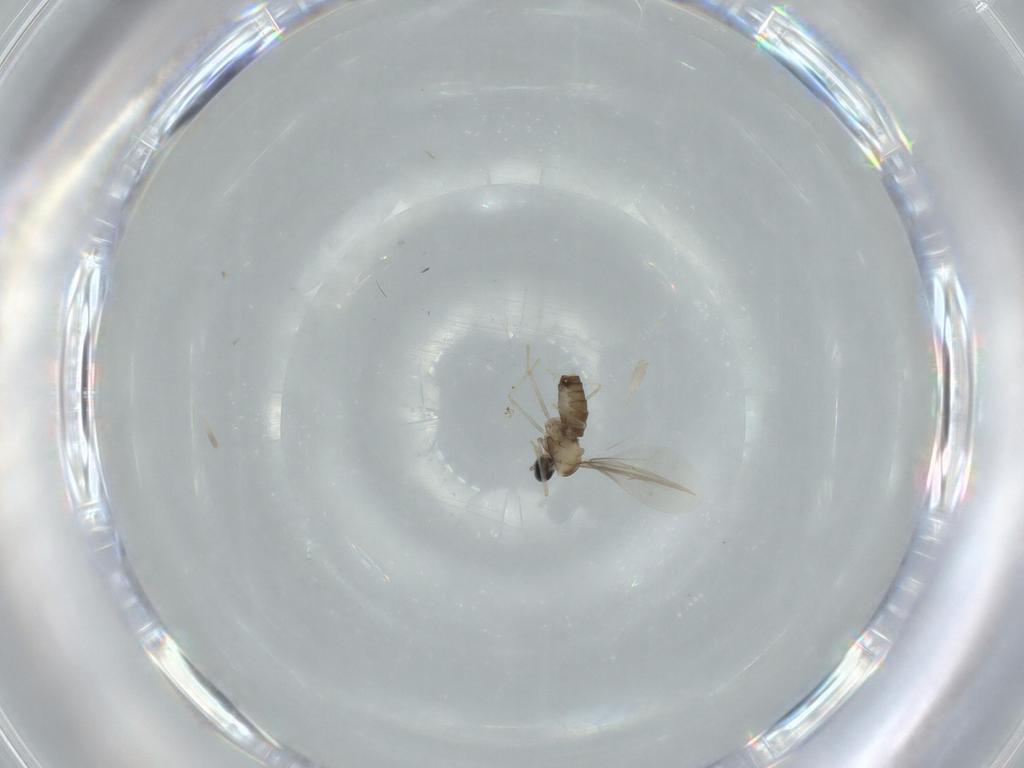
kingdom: Animalia
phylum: Arthropoda
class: Insecta
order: Diptera
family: Cecidomyiidae
